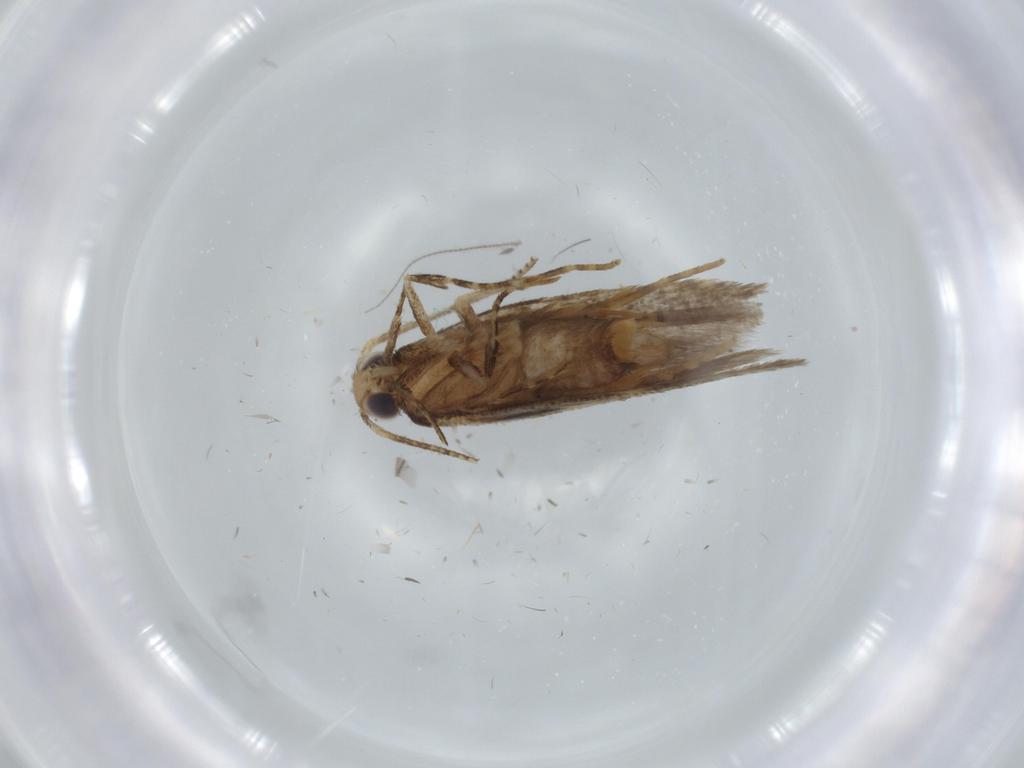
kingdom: Animalia
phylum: Arthropoda
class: Insecta
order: Lepidoptera
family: Gelechiidae
